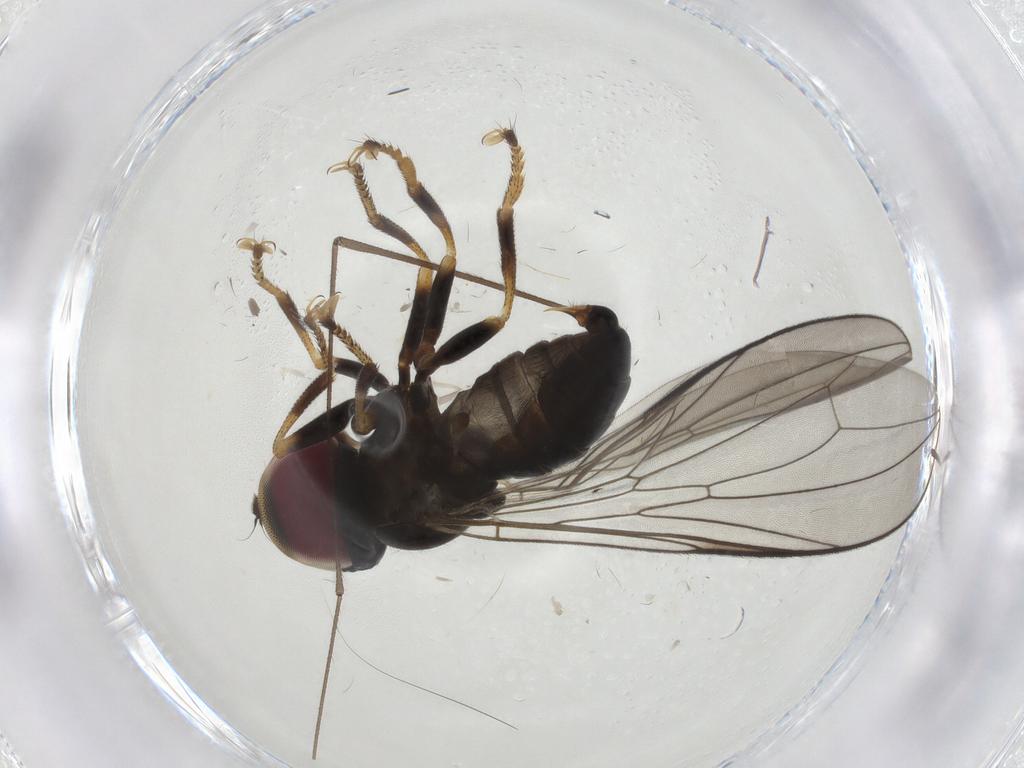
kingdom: Animalia
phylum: Arthropoda
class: Insecta
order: Diptera
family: Pipunculidae
